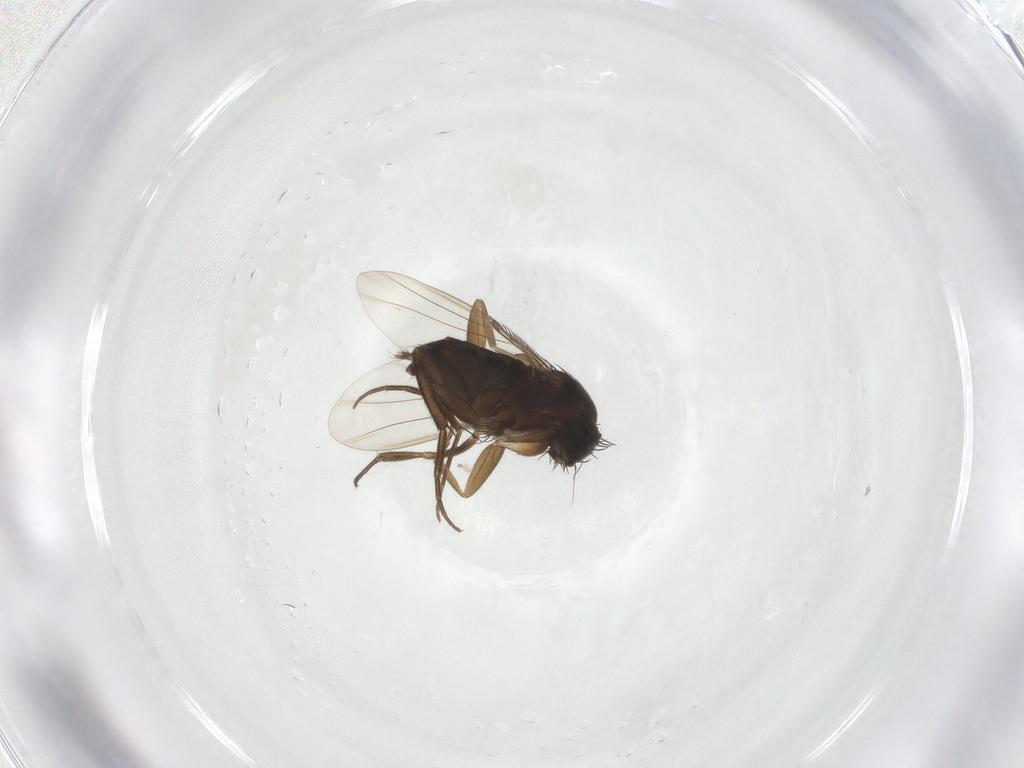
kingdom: Animalia
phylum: Arthropoda
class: Insecta
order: Diptera
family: Phoridae
